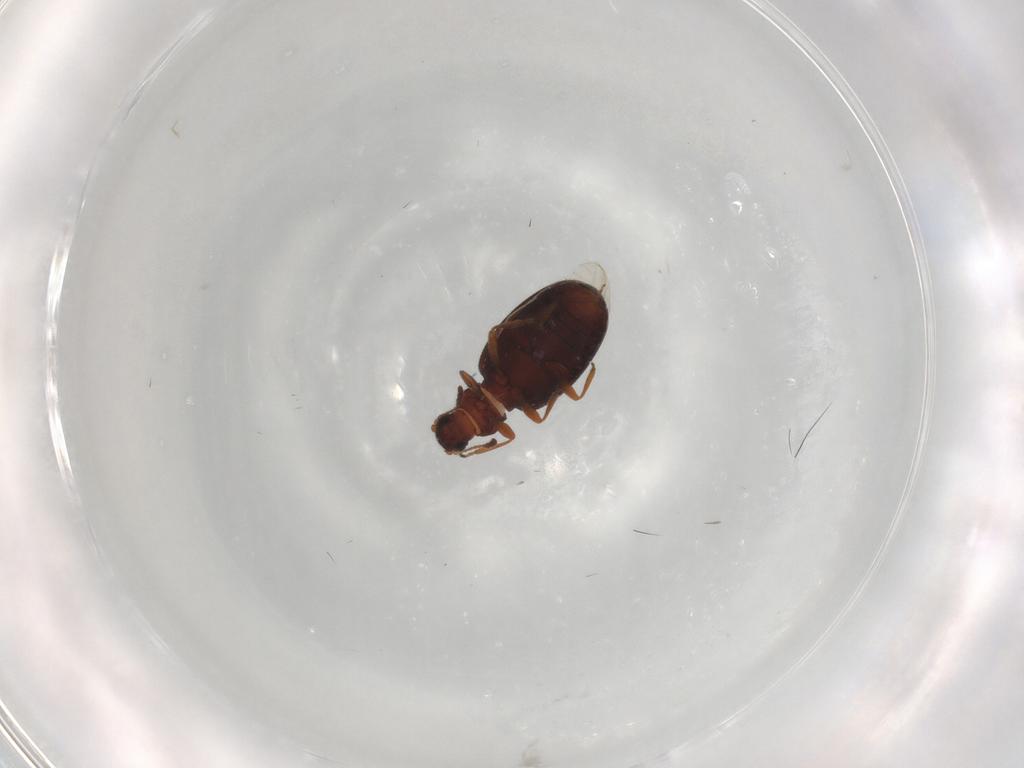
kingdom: Animalia
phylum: Arthropoda
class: Insecta
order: Coleoptera
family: Latridiidae
